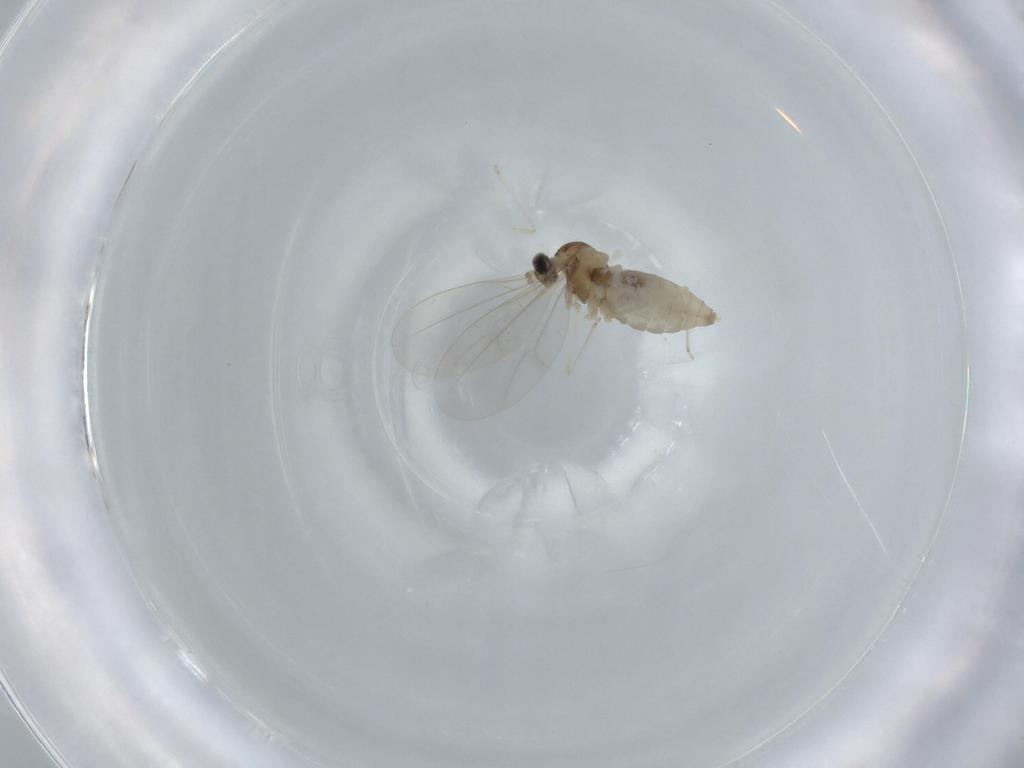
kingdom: Animalia
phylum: Arthropoda
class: Insecta
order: Diptera
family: Cecidomyiidae
